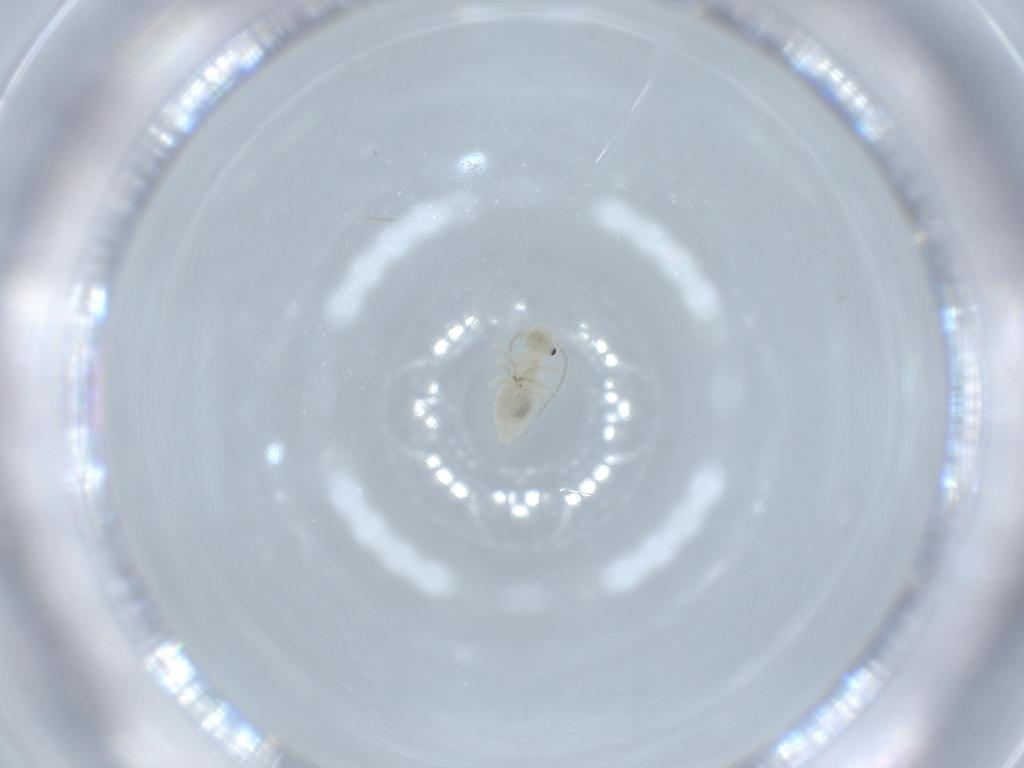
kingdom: Animalia
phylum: Arthropoda
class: Insecta
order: Psocodea
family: Caeciliusidae
